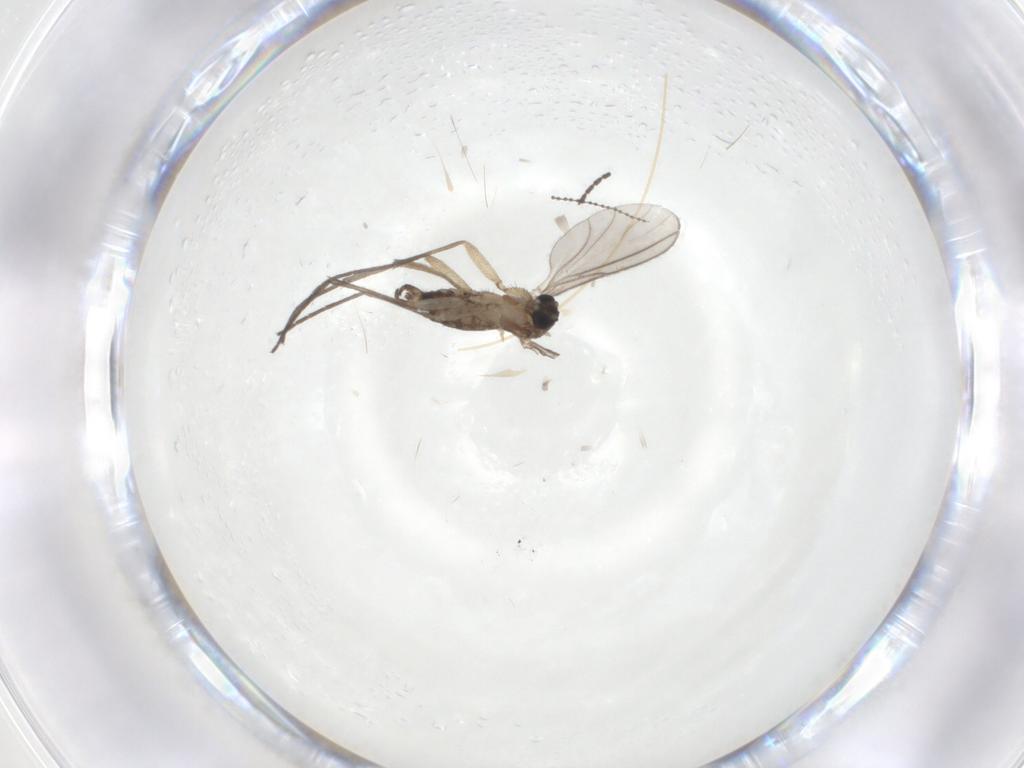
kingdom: Animalia
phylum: Arthropoda
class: Insecta
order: Diptera
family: Sciaridae
